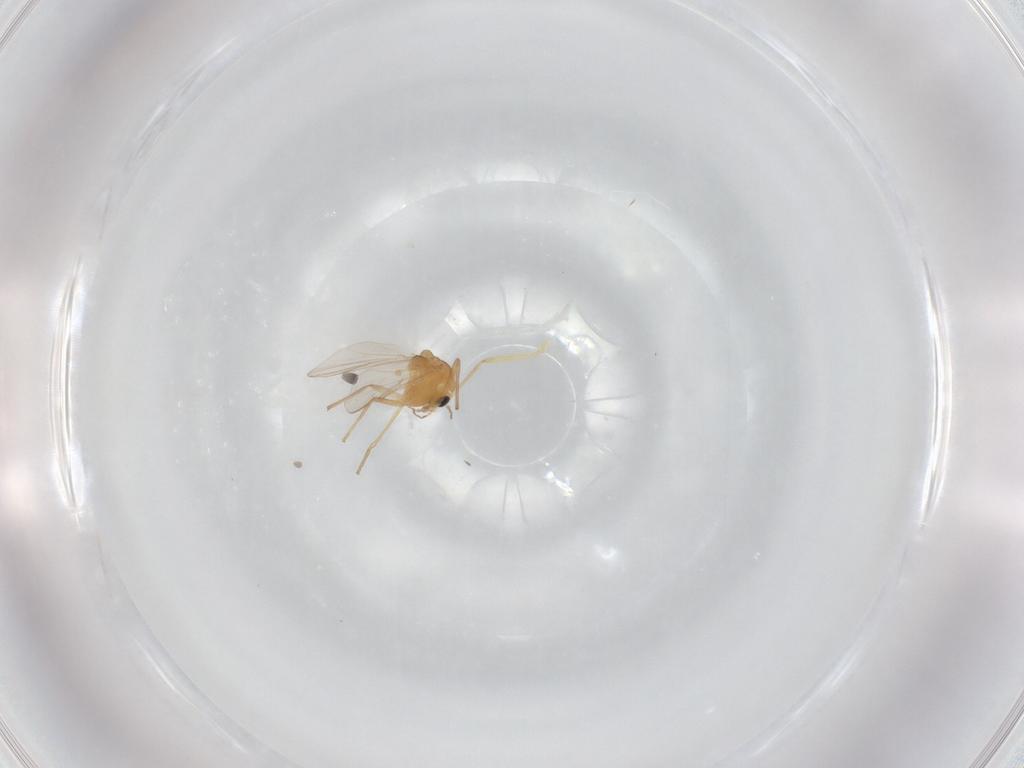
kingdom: Animalia
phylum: Arthropoda
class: Insecta
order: Diptera
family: Chironomidae
